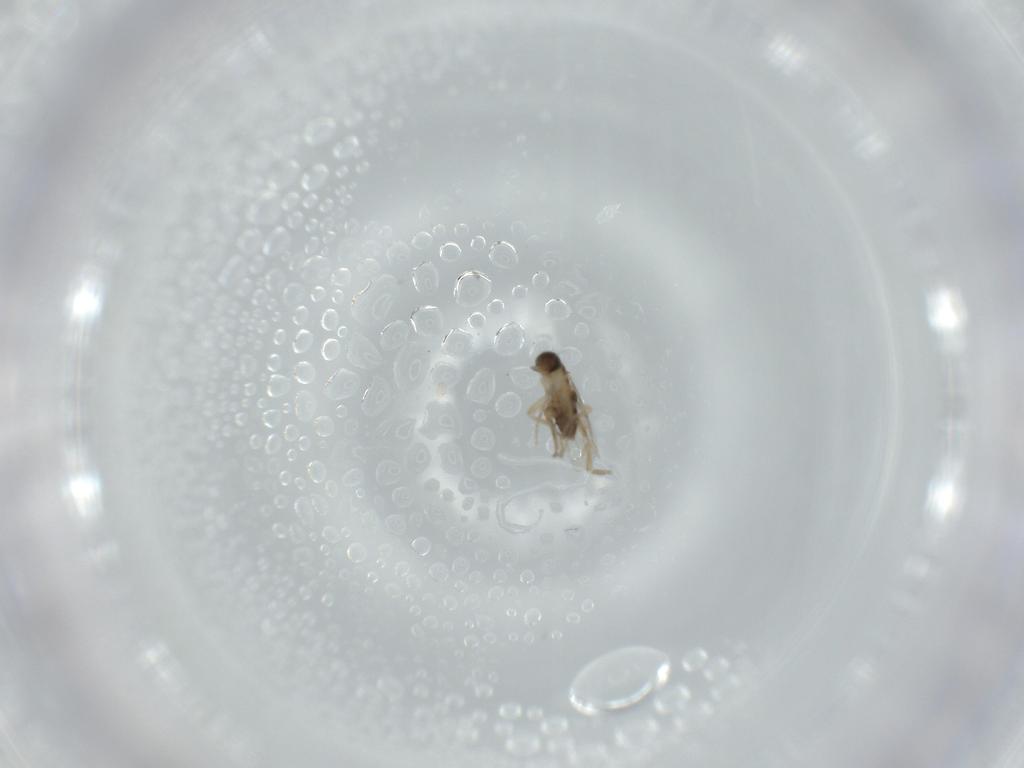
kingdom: Animalia
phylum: Arthropoda
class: Insecta
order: Diptera
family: Phoridae
